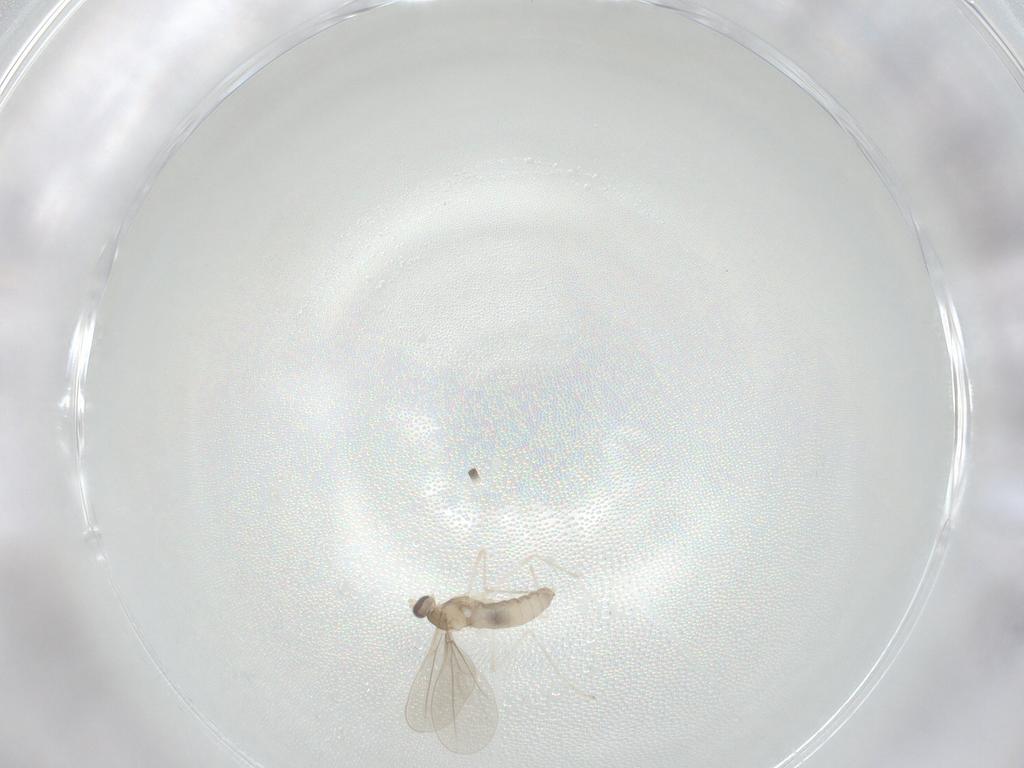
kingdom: Animalia
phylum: Arthropoda
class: Insecta
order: Diptera
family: Cecidomyiidae
